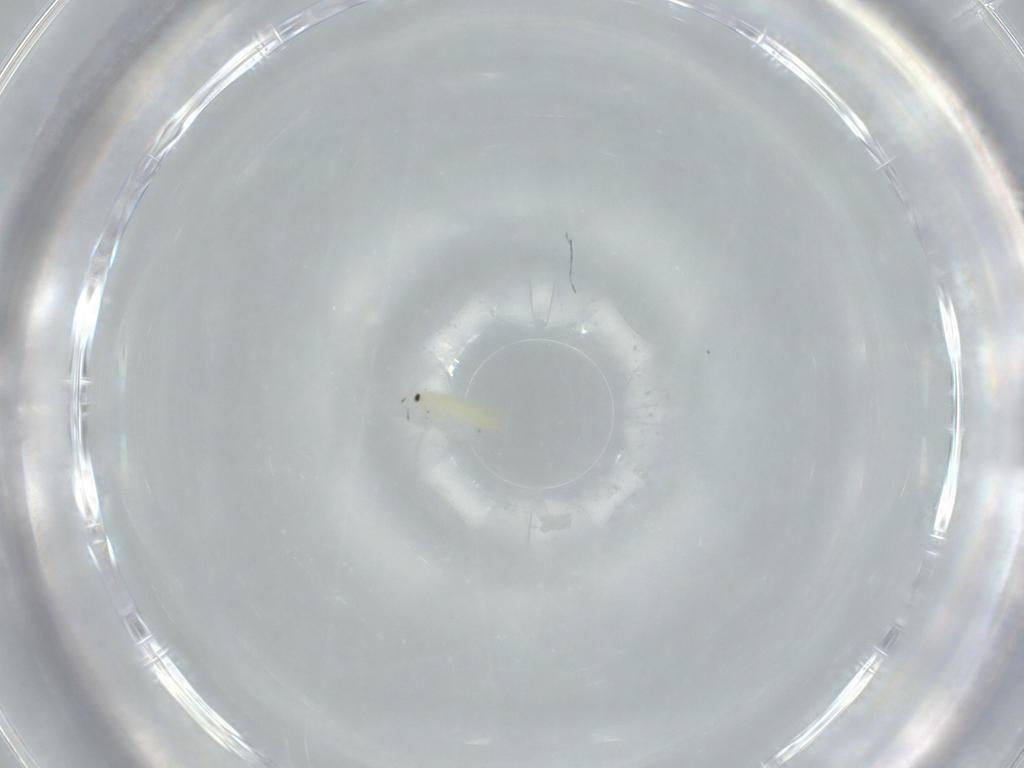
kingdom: Animalia
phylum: Arthropoda
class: Insecta
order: Thysanoptera
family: Thripidae
